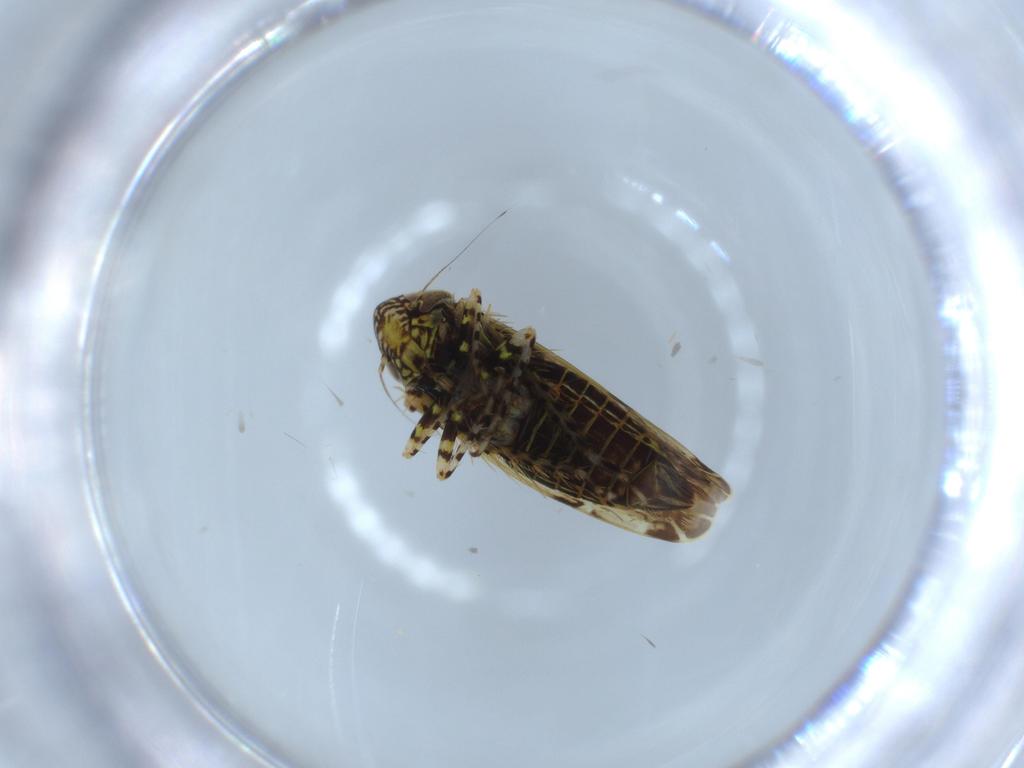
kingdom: Animalia
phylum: Arthropoda
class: Insecta
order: Hemiptera
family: Cicadellidae
